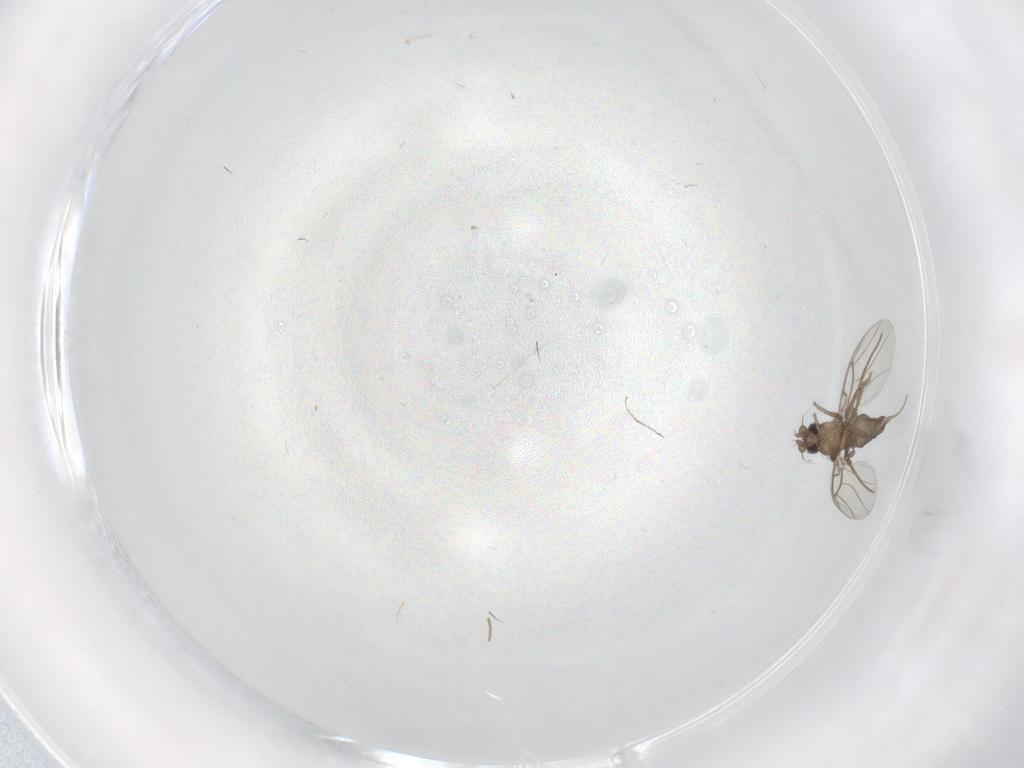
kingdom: Animalia
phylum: Arthropoda
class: Insecta
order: Diptera
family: Phoridae
